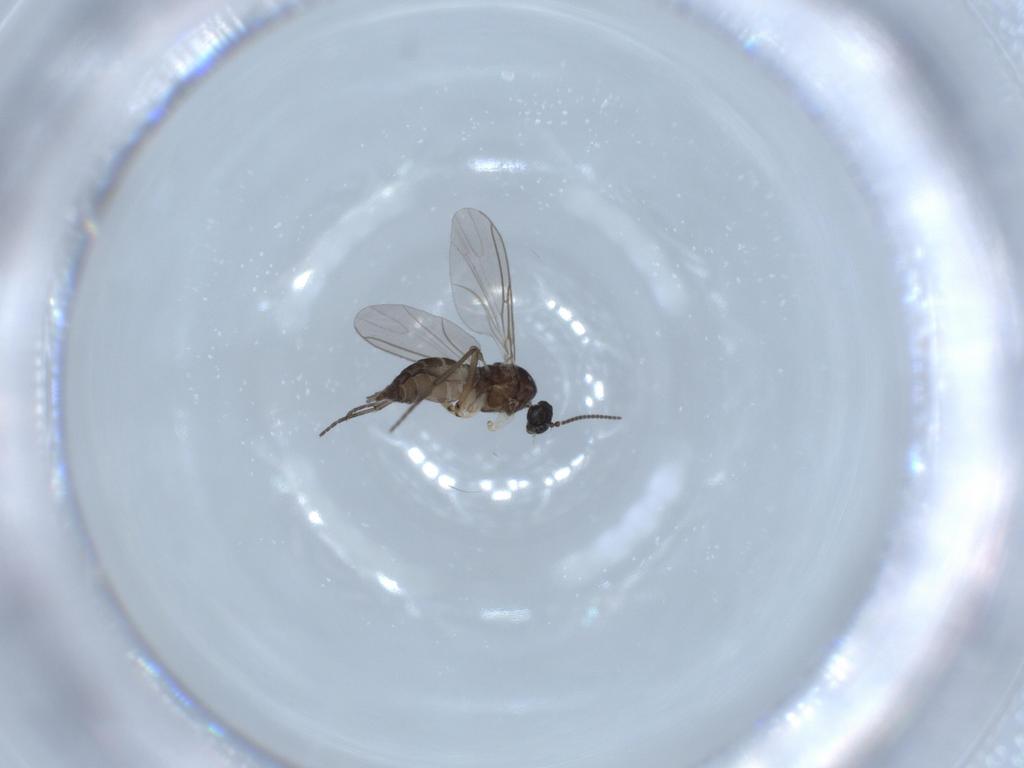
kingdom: Animalia
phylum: Arthropoda
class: Insecta
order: Diptera
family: Sciaridae
